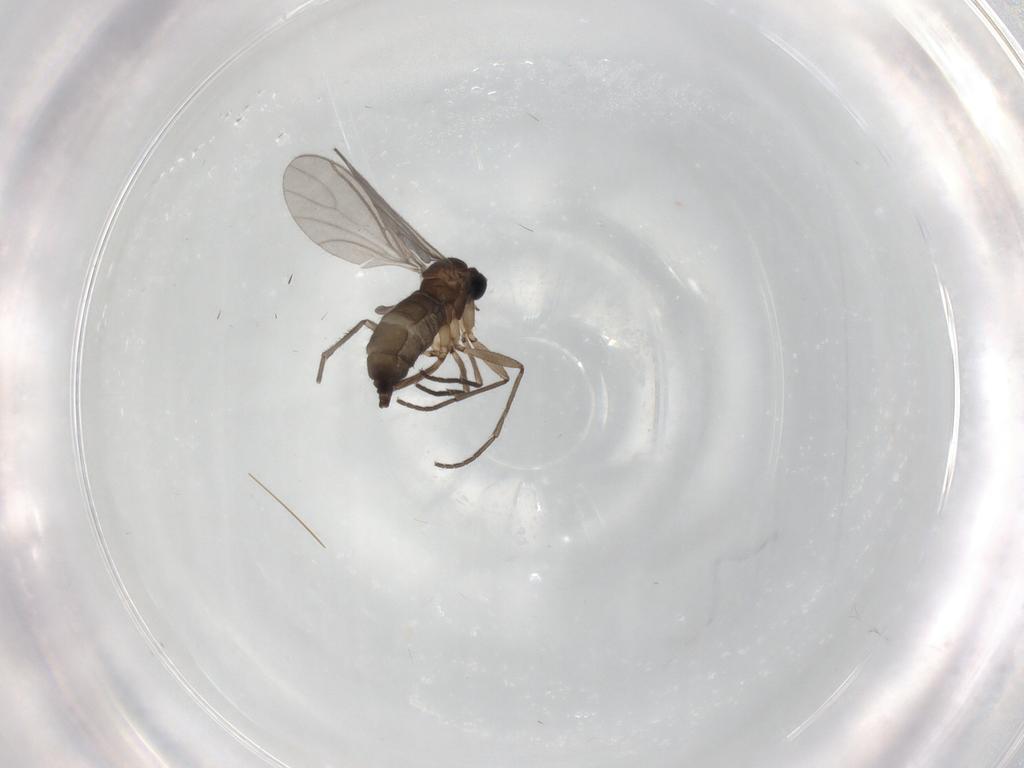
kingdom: Animalia
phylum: Arthropoda
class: Insecta
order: Diptera
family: Sciaridae
